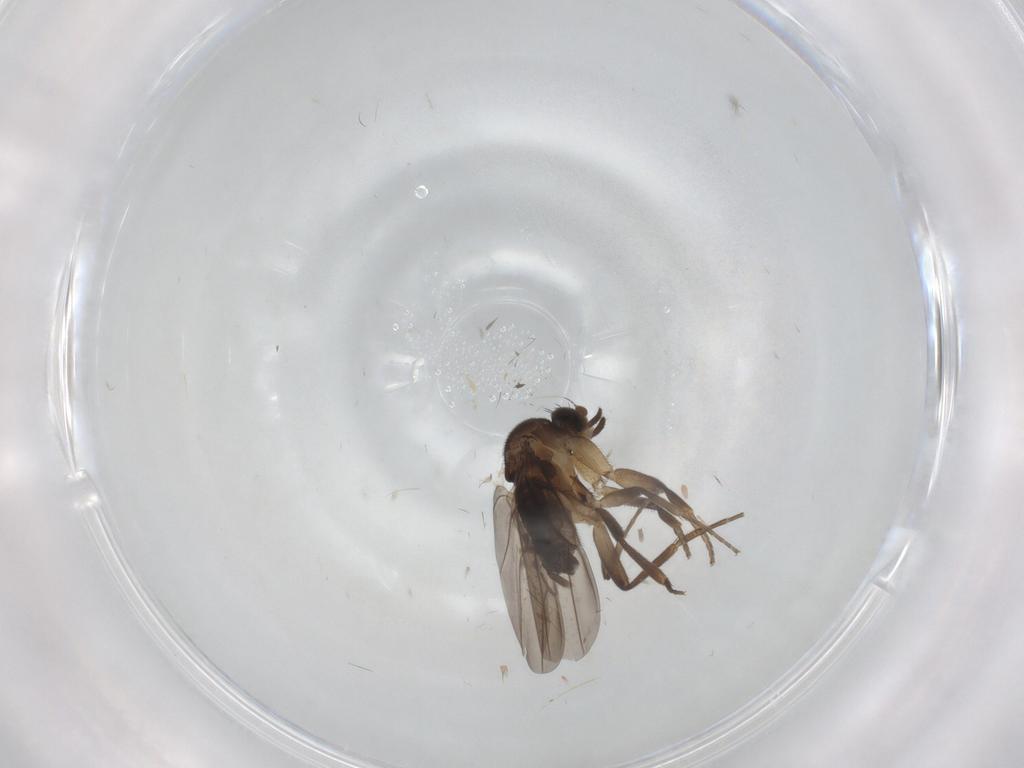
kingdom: Animalia
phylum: Arthropoda
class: Insecta
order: Diptera
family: Phoridae
